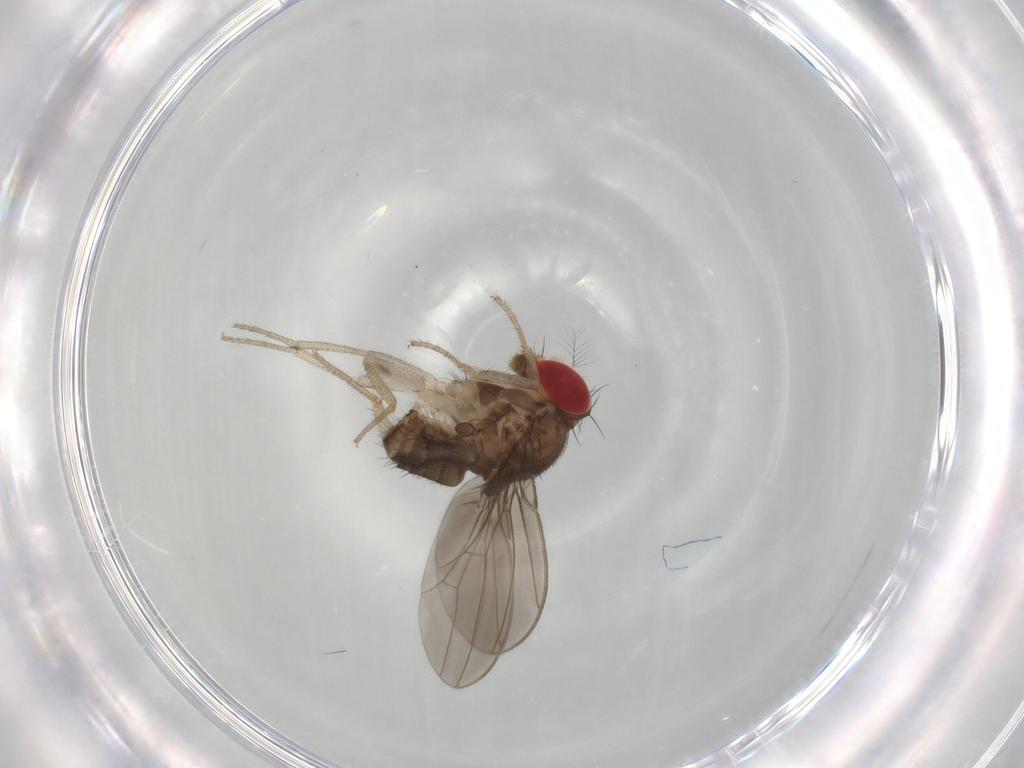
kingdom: Animalia
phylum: Arthropoda
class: Insecta
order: Diptera
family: Drosophilidae
